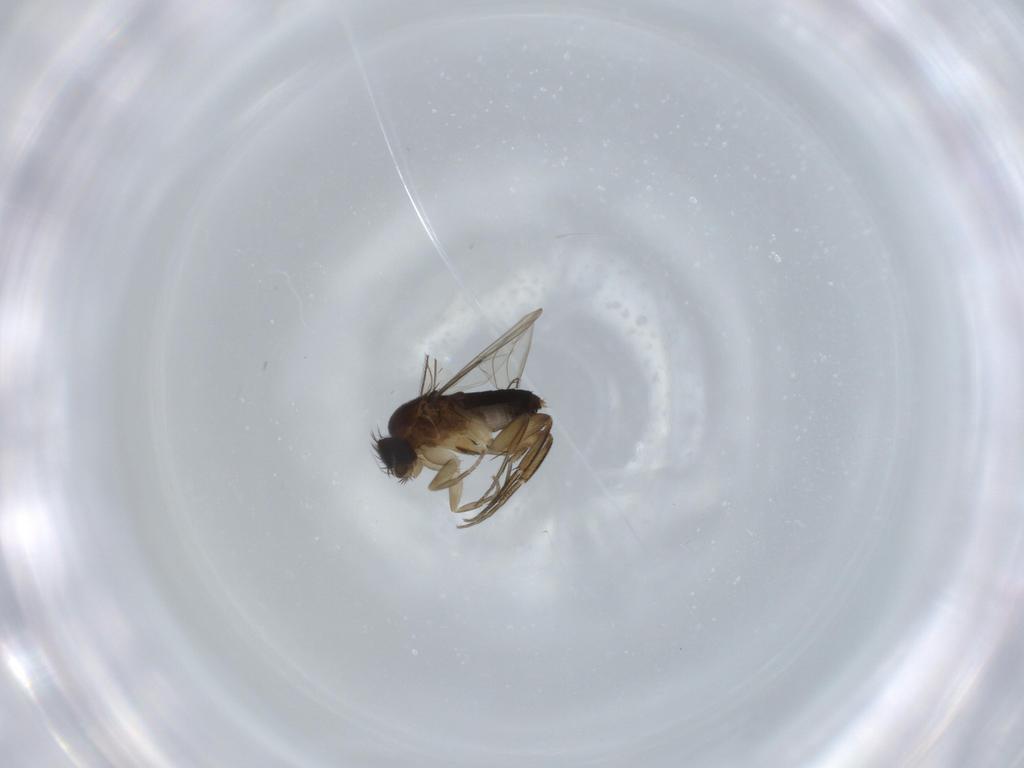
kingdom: Animalia
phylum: Arthropoda
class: Insecta
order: Diptera
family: Phoridae
